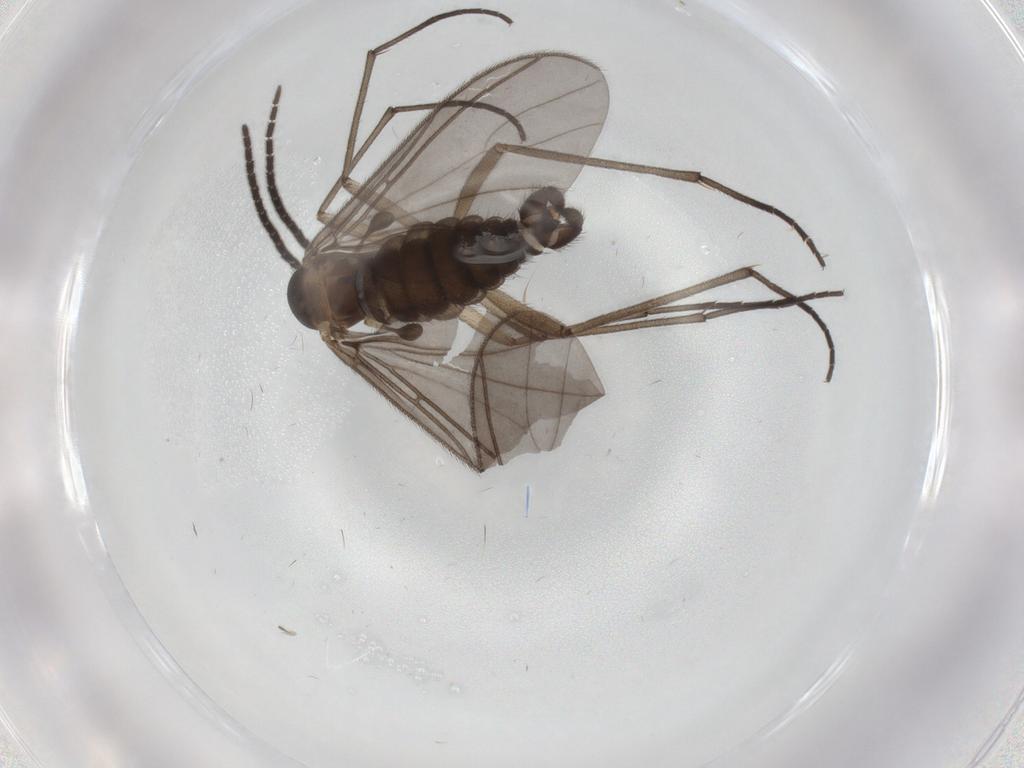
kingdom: Animalia
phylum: Arthropoda
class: Insecta
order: Diptera
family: Sciaridae
